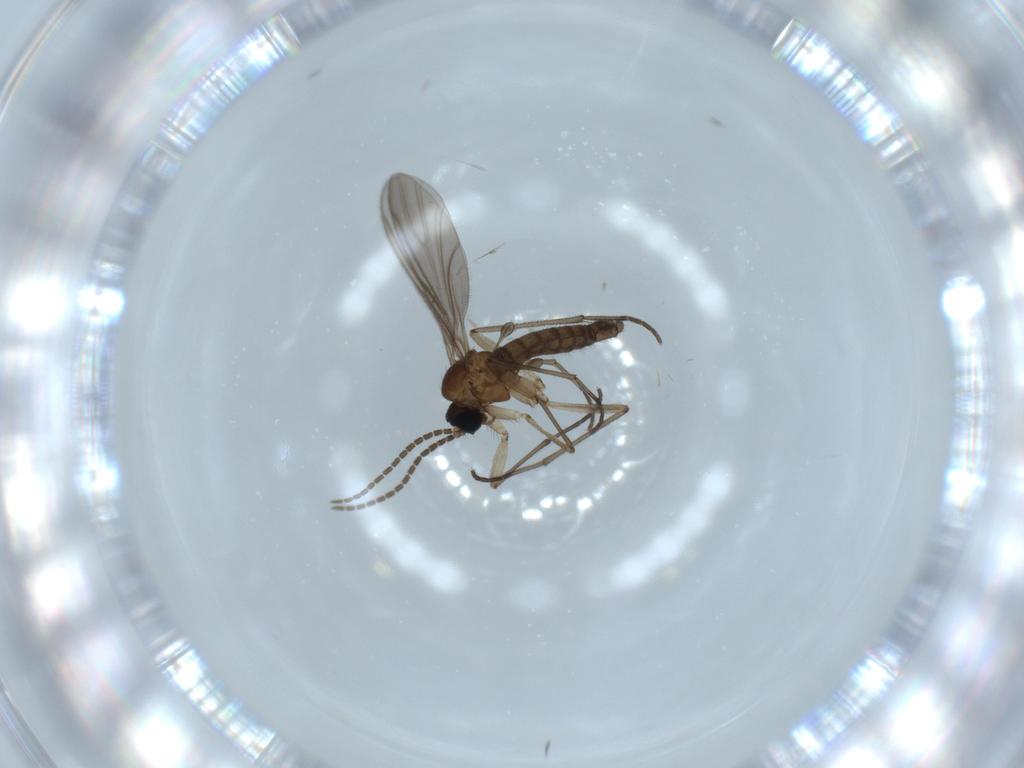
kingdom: Animalia
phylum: Arthropoda
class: Insecta
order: Diptera
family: Sciaridae
